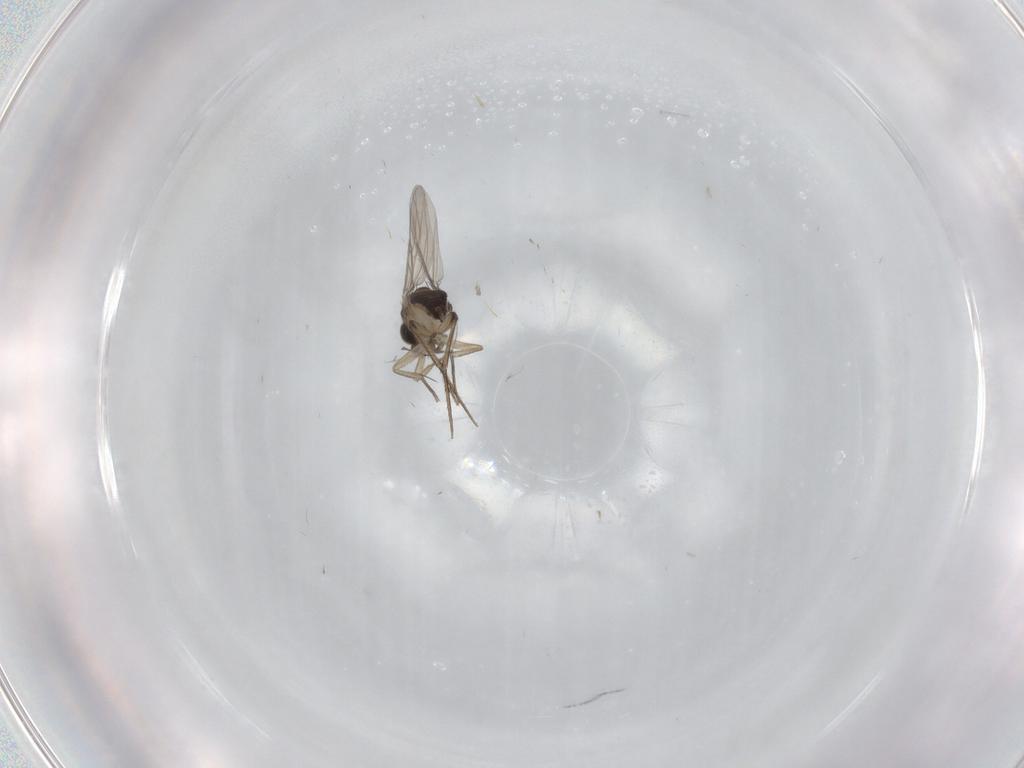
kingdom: Animalia
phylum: Arthropoda
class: Insecta
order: Diptera
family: Phoridae
